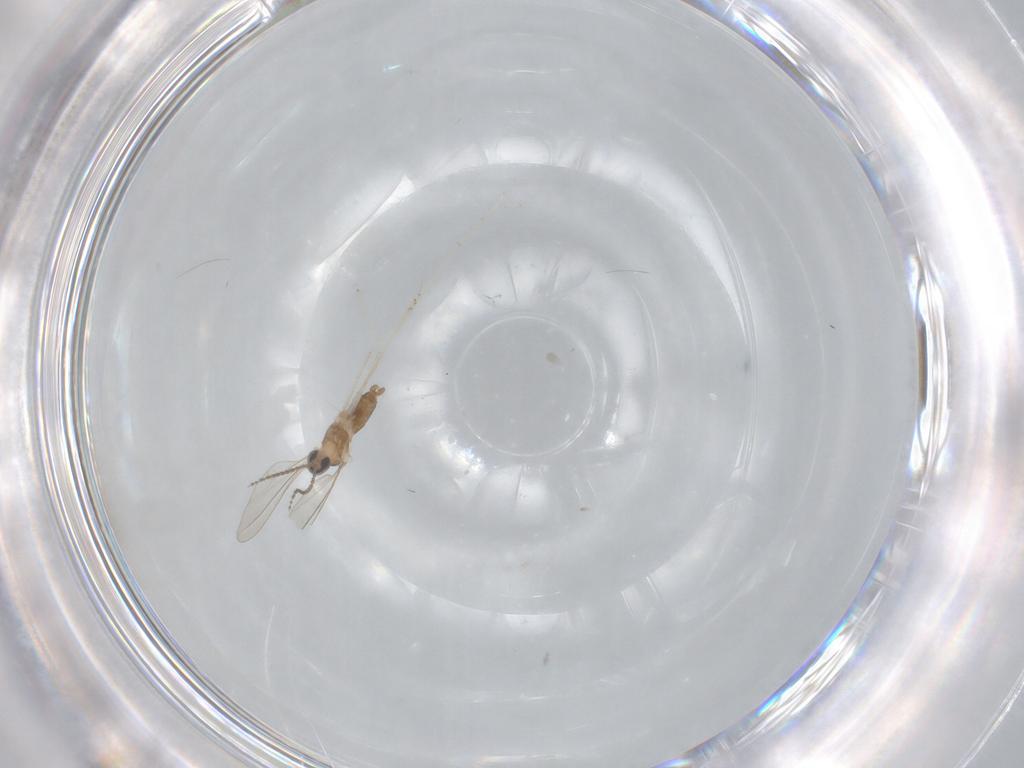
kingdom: Animalia
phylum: Arthropoda
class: Insecta
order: Diptera
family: Cecidomyiidae
